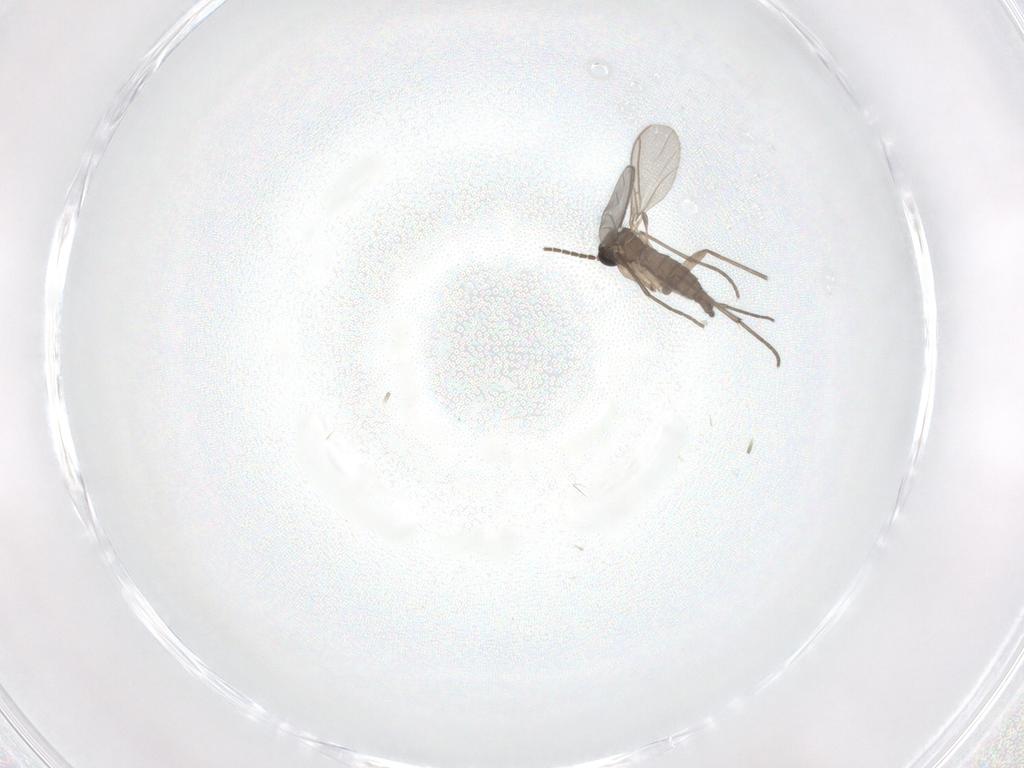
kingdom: Animalia
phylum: Arthropoda
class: Insecta
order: Diptera
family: Sciaridae
